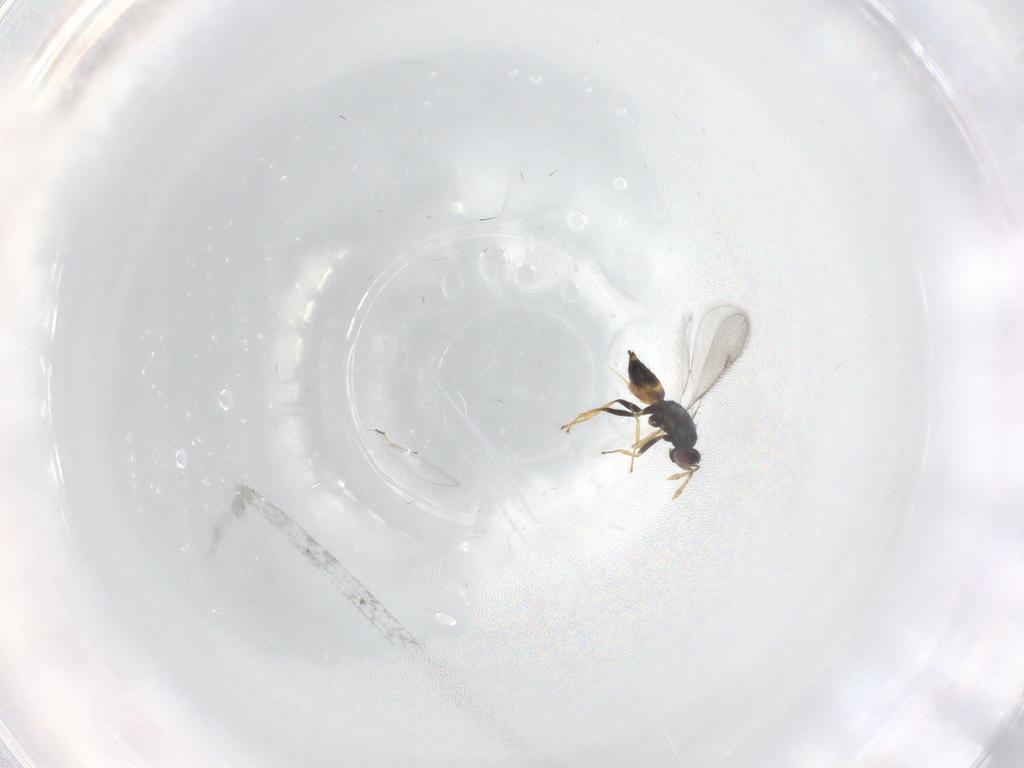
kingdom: Animalia
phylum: Arthropoda
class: Insecta
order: Hymenoptera
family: Eulophidae
